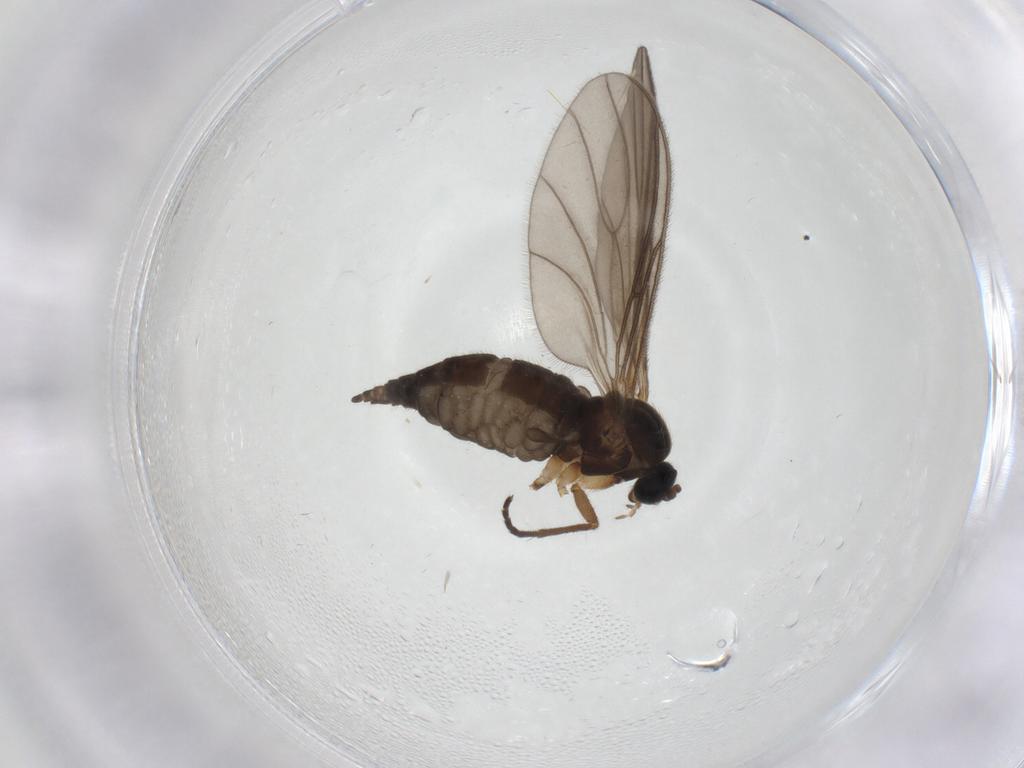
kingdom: Animalia
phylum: Arthropoda
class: Insecta
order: Diptera
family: Sciaridae
